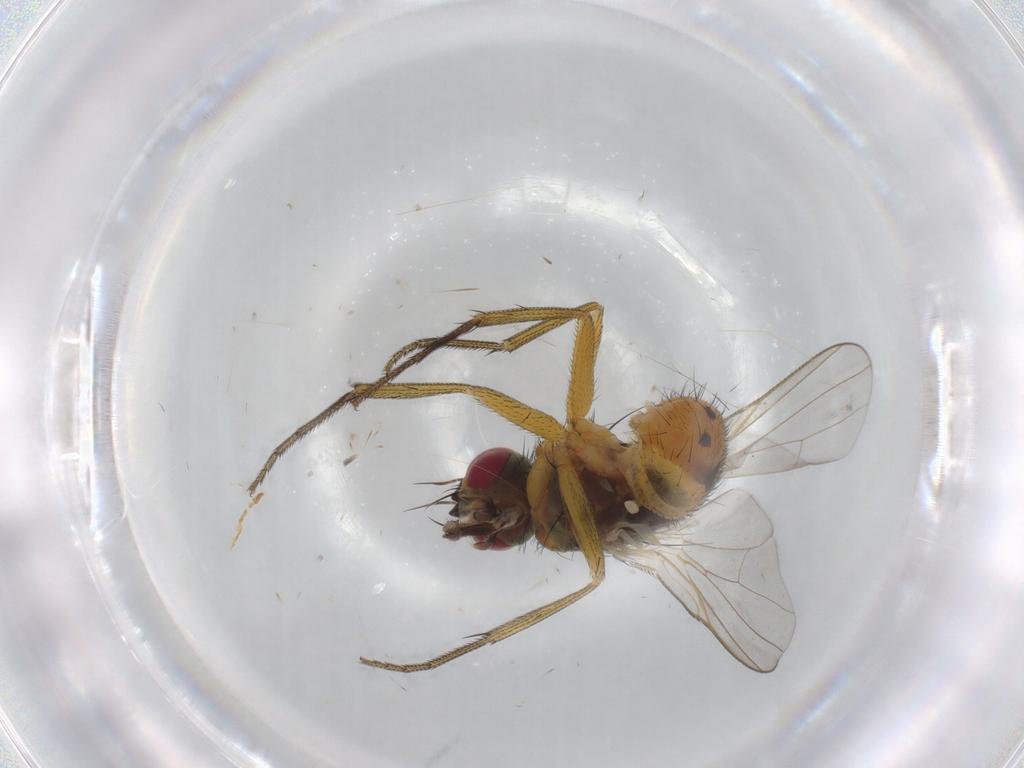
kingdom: Animalia
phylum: Arthropoda
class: Insecta
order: Diptera
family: Muscidae
